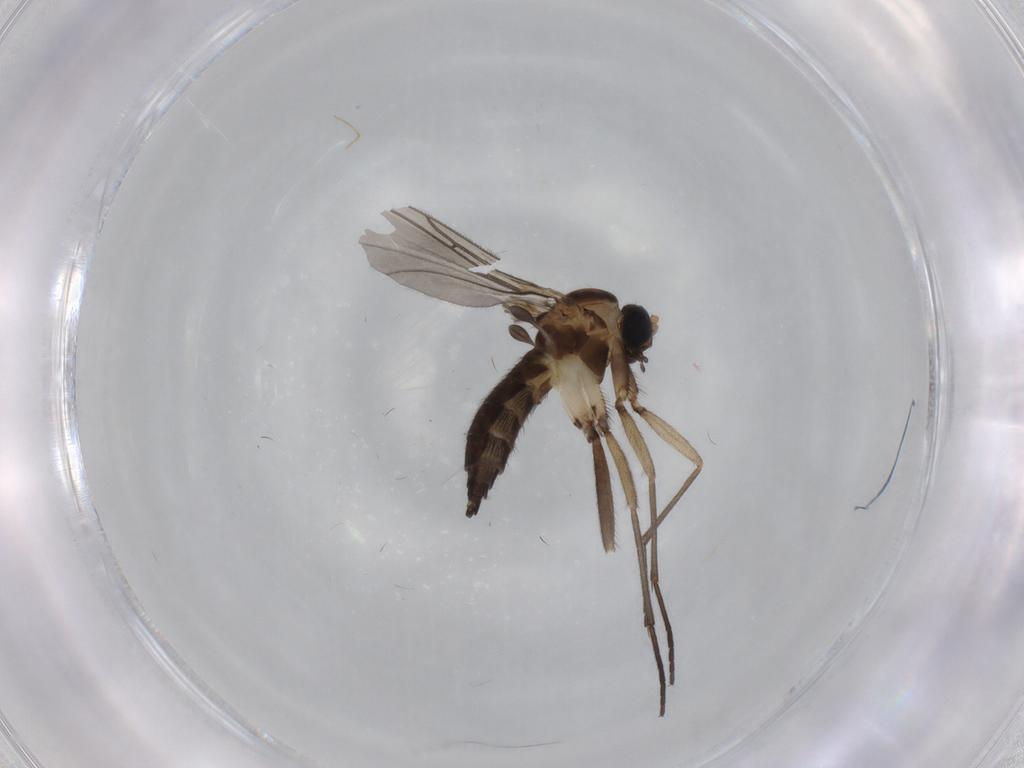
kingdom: Animalia
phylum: Arthropoda
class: Insecta
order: Diptera
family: Sciaridae
